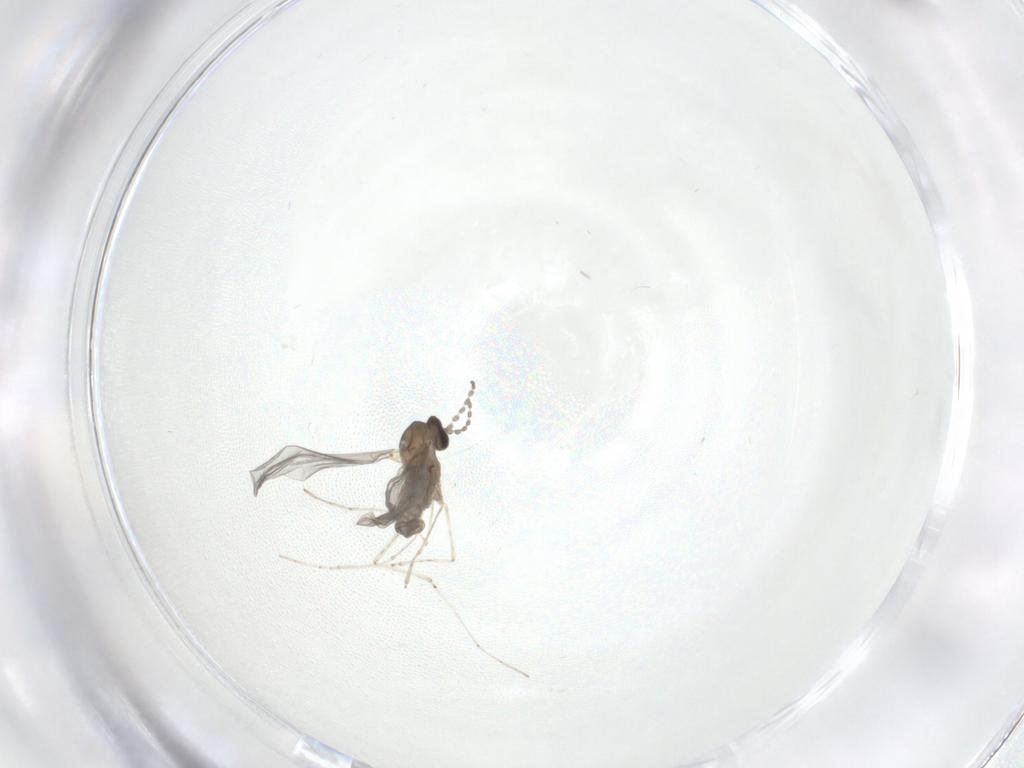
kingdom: Animalia
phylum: Arthropoda
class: Insecta
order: Diptera
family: Cecidomyiidae
